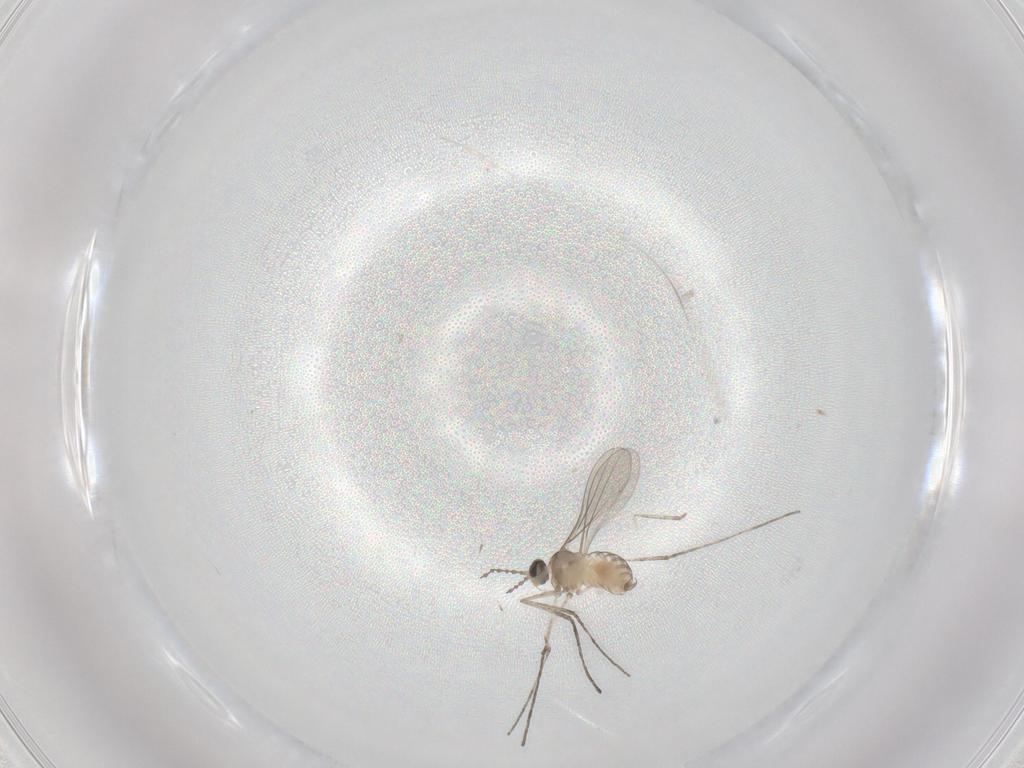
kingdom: Animalia
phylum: Arthropoda
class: Insecta
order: Diptera
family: Cecidomyiidae
